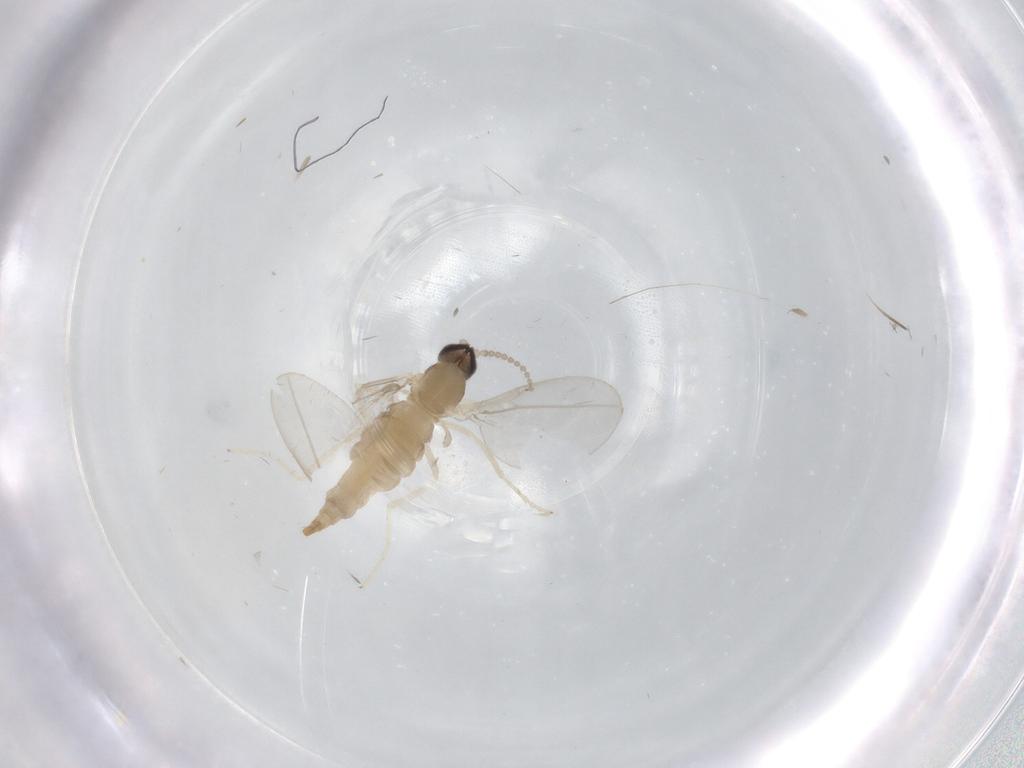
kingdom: Animalia
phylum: Arthropoda
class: Insecta
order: Diptera
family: Cecidomyiidae
